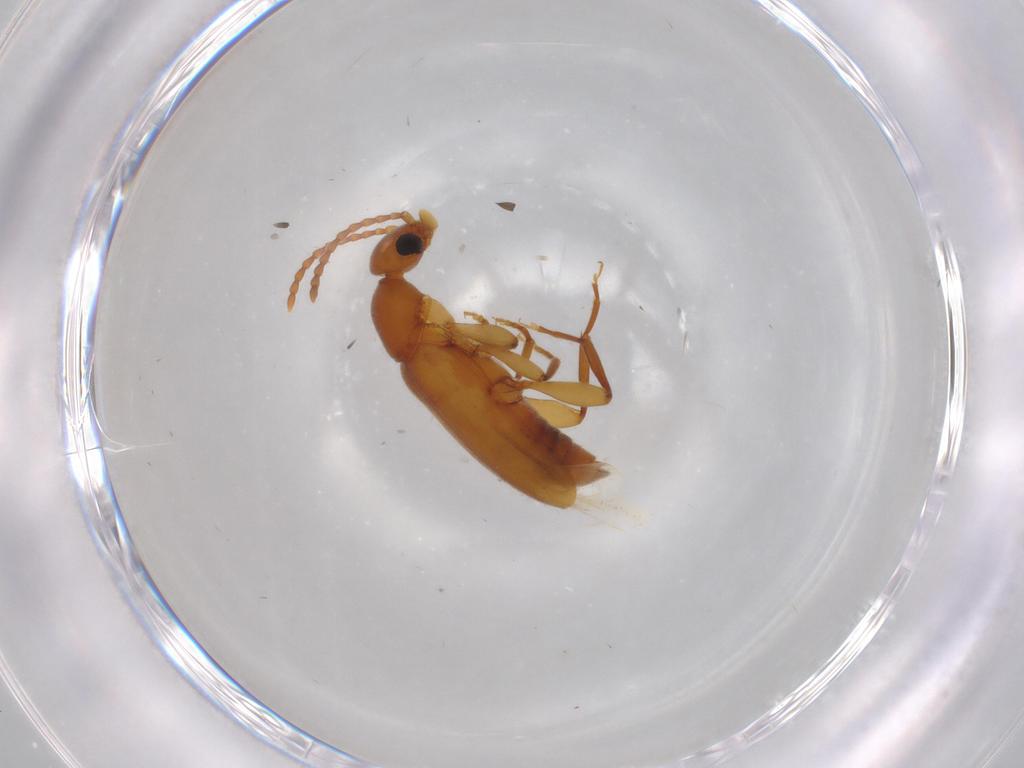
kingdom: Animalia
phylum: Arthropoda
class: Insecta
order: Coleoptera
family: Anthicidae
